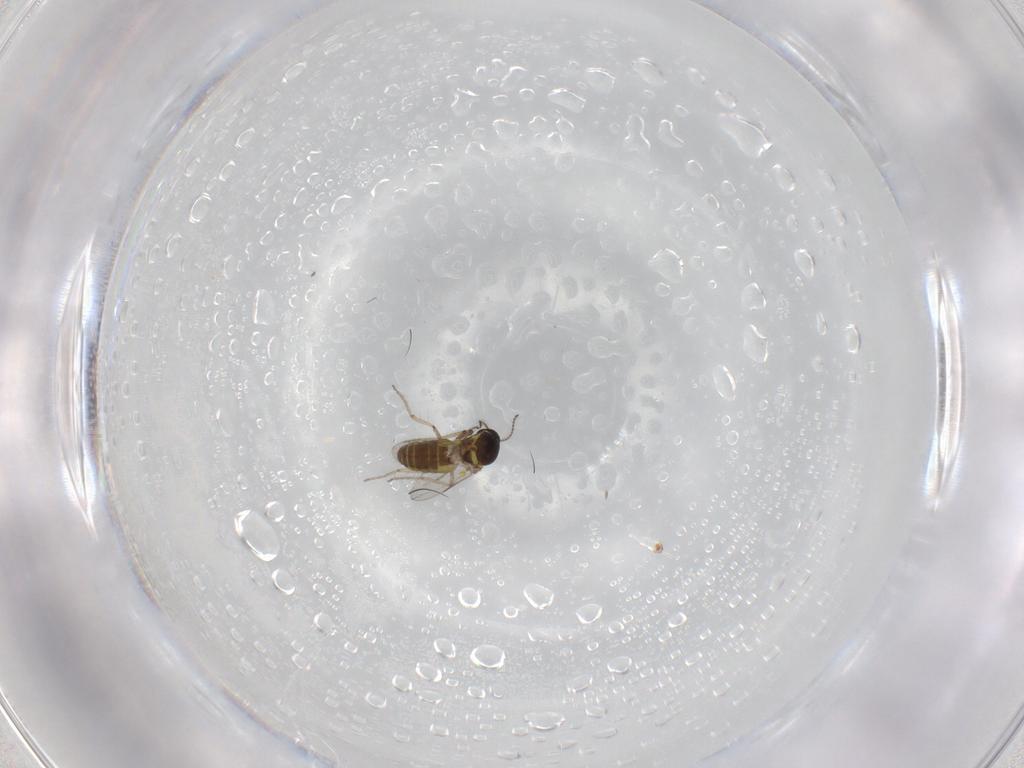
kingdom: Animalia
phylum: Arthropoda
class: Insecta
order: Diptera
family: Ceratopogonidae
